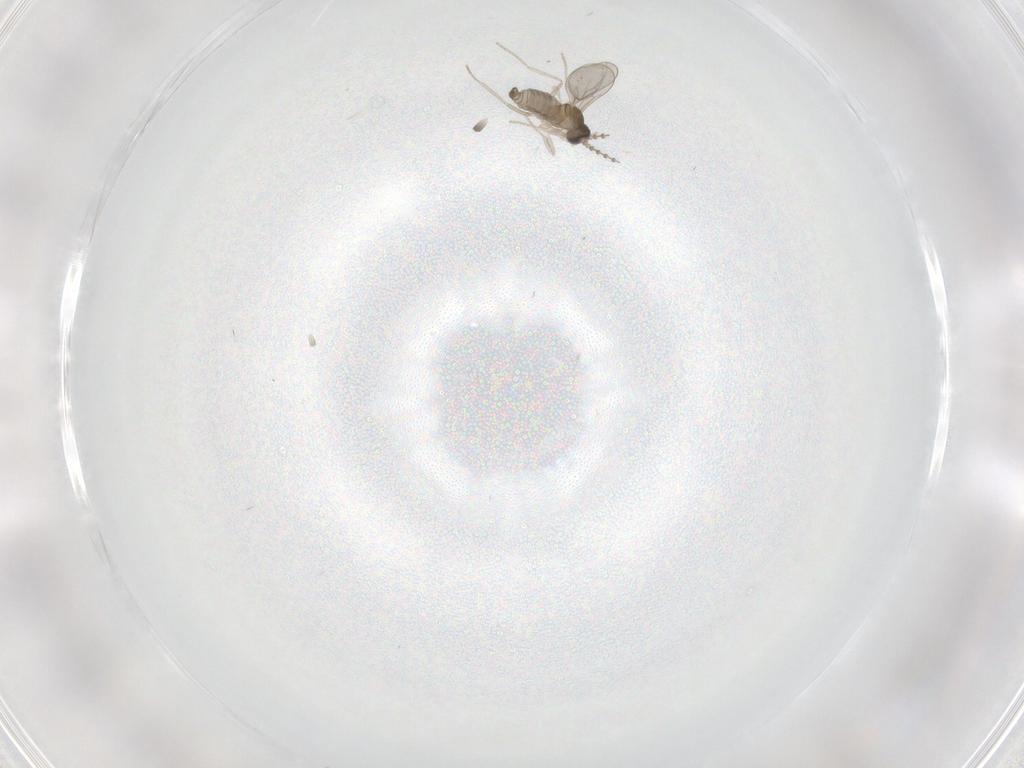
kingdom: Animalia
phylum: Arthropoda
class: Insecta
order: Diptera
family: Cecidomyiidae
